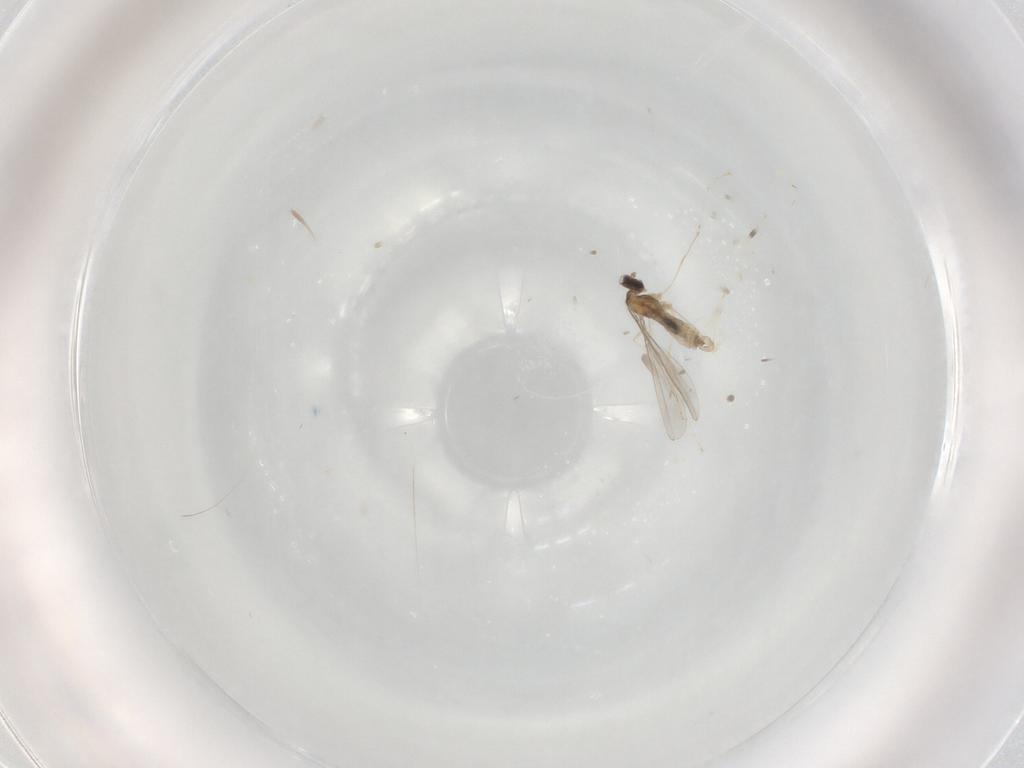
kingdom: Animalia
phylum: Arthropoda
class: Insecta
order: Diptera
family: Cecidomyiidae
